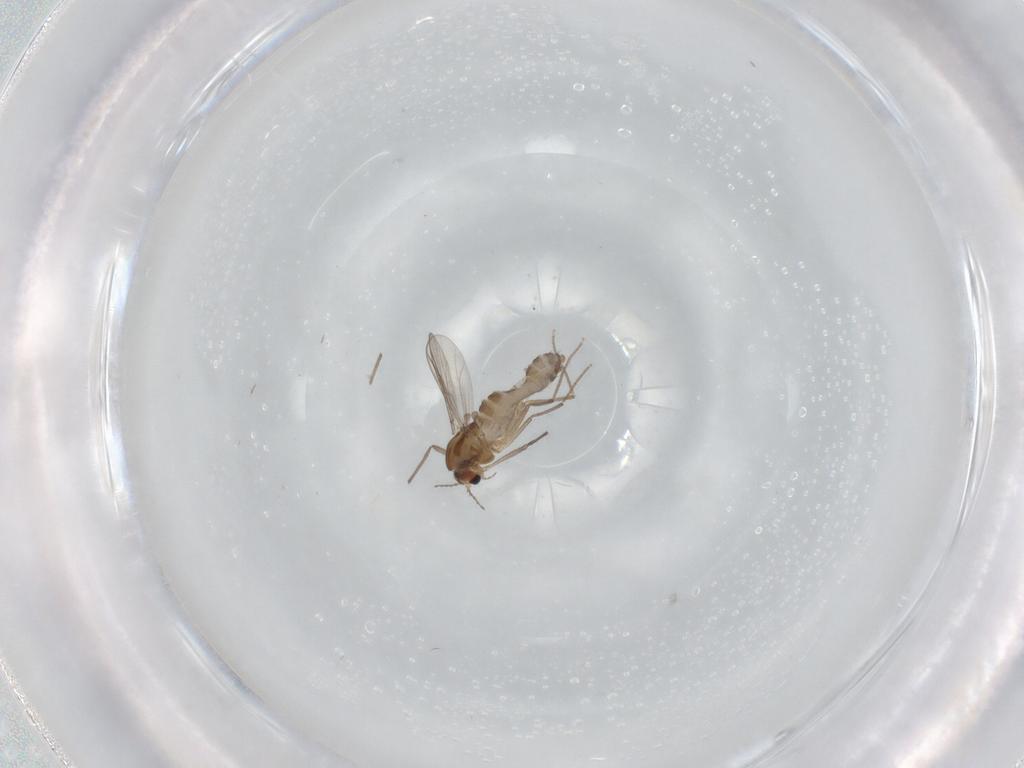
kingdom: Animalia
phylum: Arthropoda
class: Insecta
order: Diptera
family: Chironomidae
